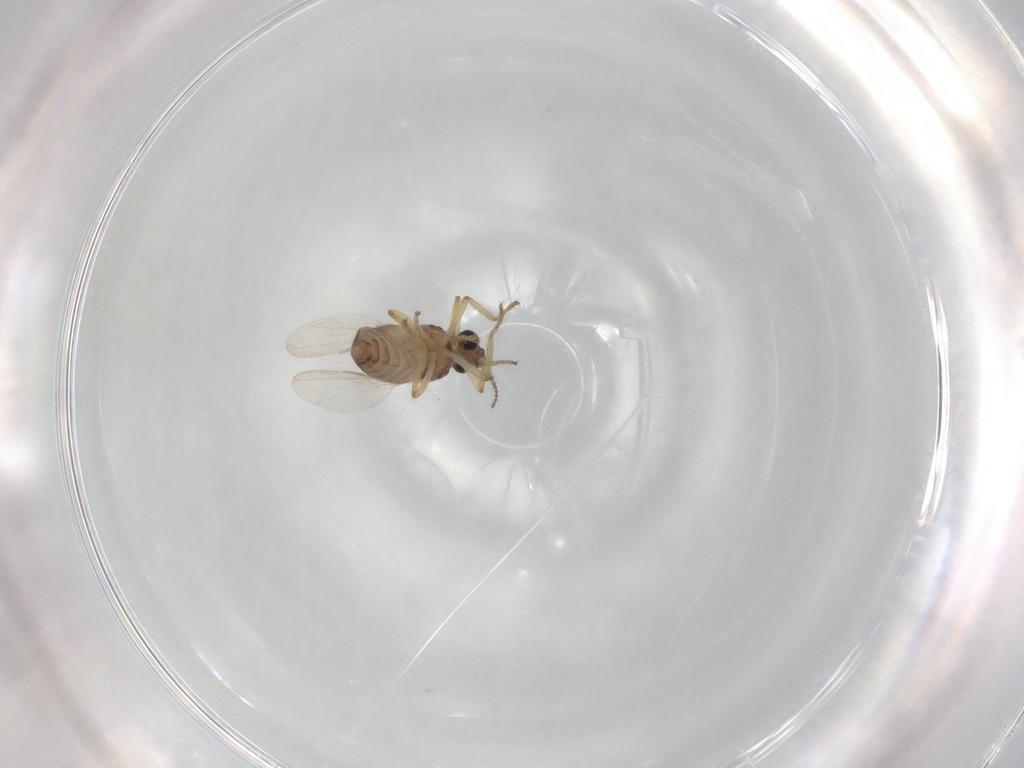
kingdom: Animalia
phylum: Arthropoda
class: Insecta
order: Diptera
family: Ceratopogonidae
